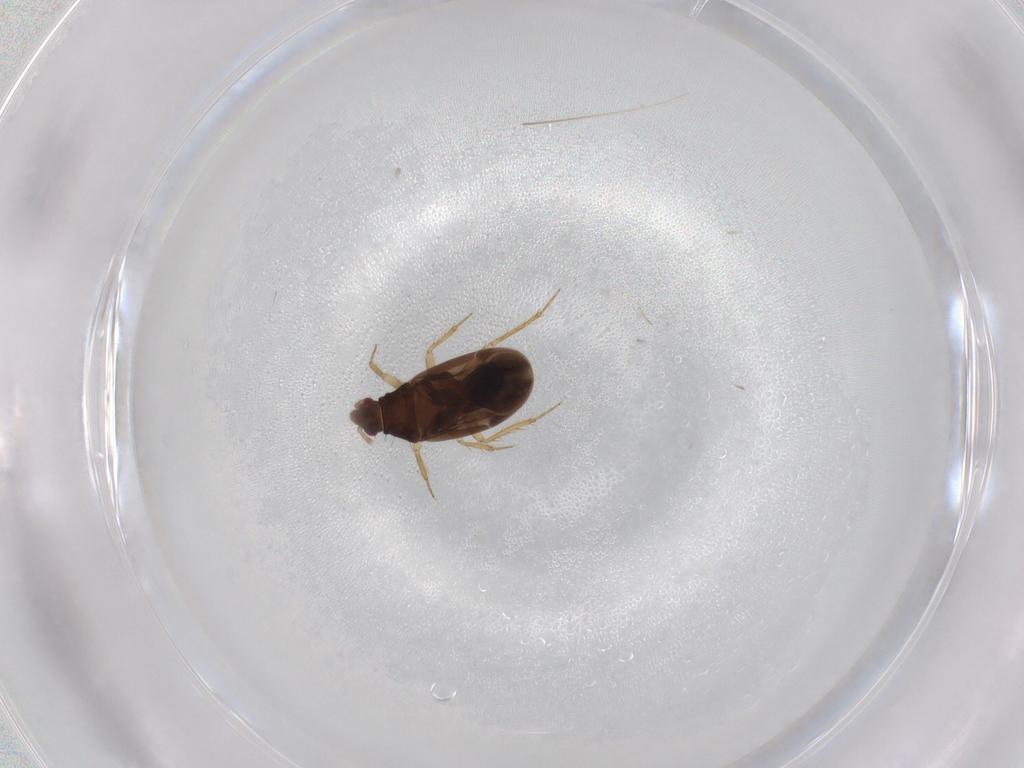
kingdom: Animalia
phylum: Arthropoda
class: Insecta
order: Hemiptera
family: Ceratocombidae
